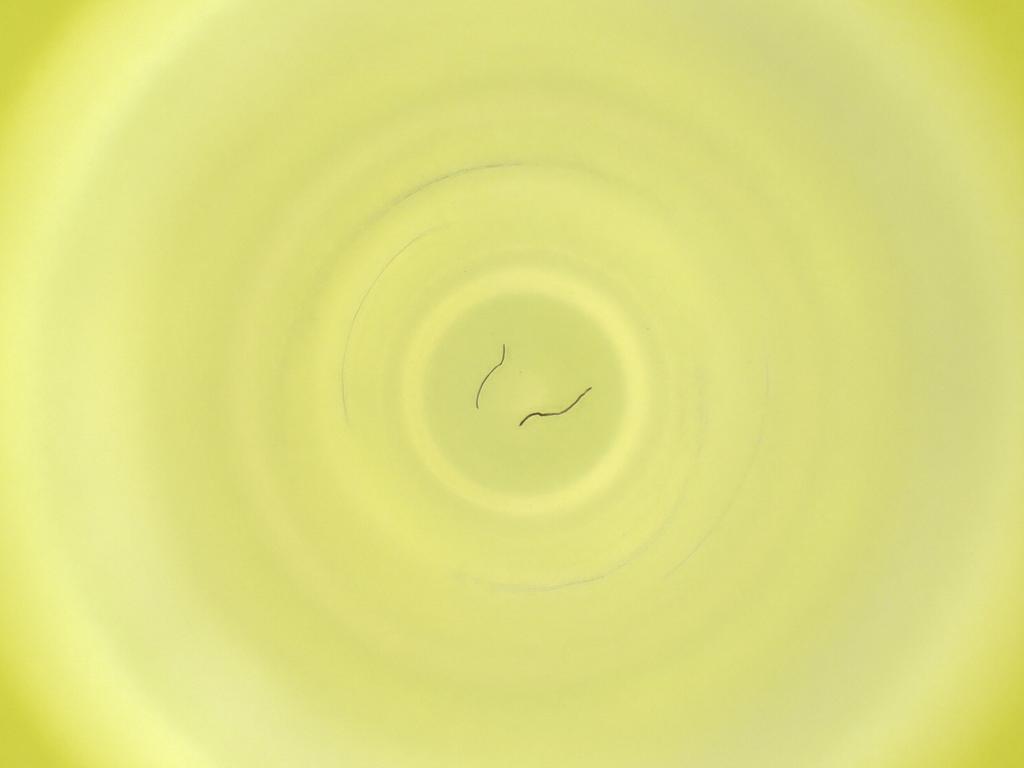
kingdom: Animalia
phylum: Arthropoda
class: Insecta
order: Diptera
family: Cecidomyiidae
